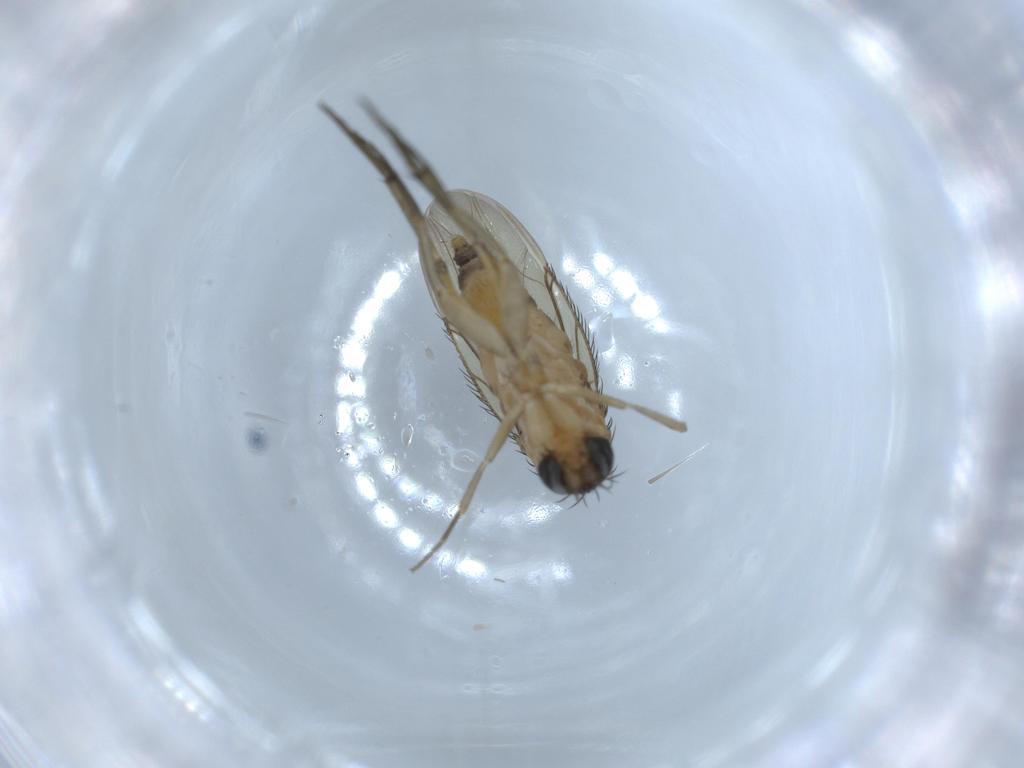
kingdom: Animalia
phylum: Arthropoda
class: Insecta
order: Diptera
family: Phoridae
